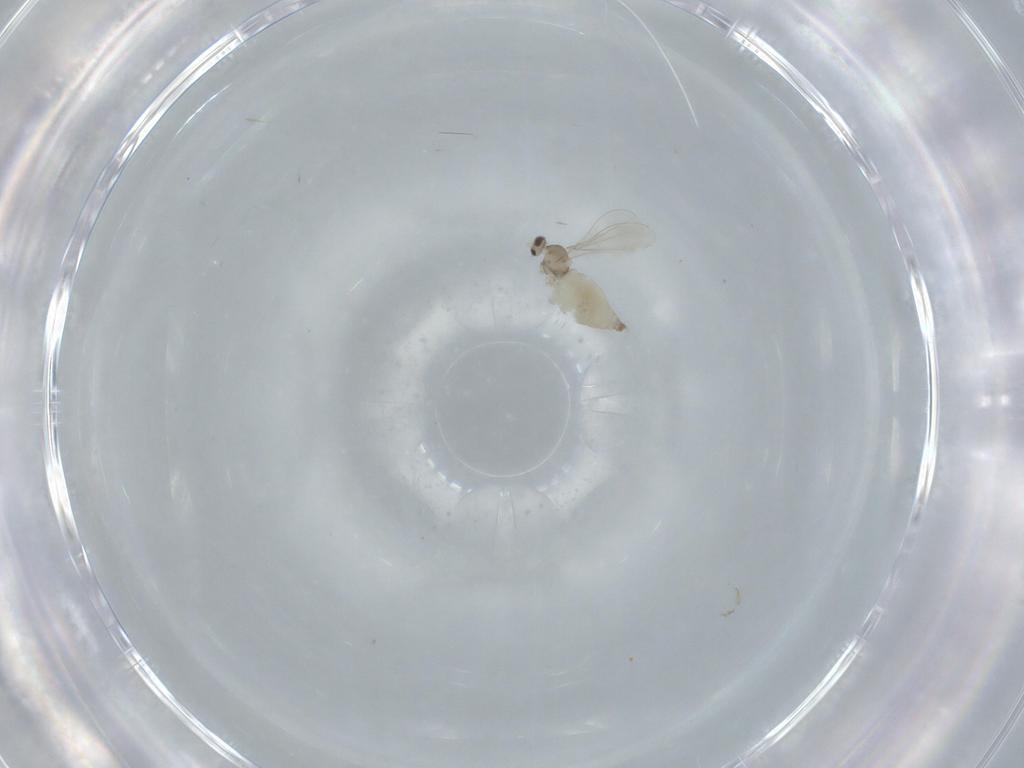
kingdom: Animalia
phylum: Arthropoda
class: Insecta
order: Diptera
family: Cecidomyiidae
